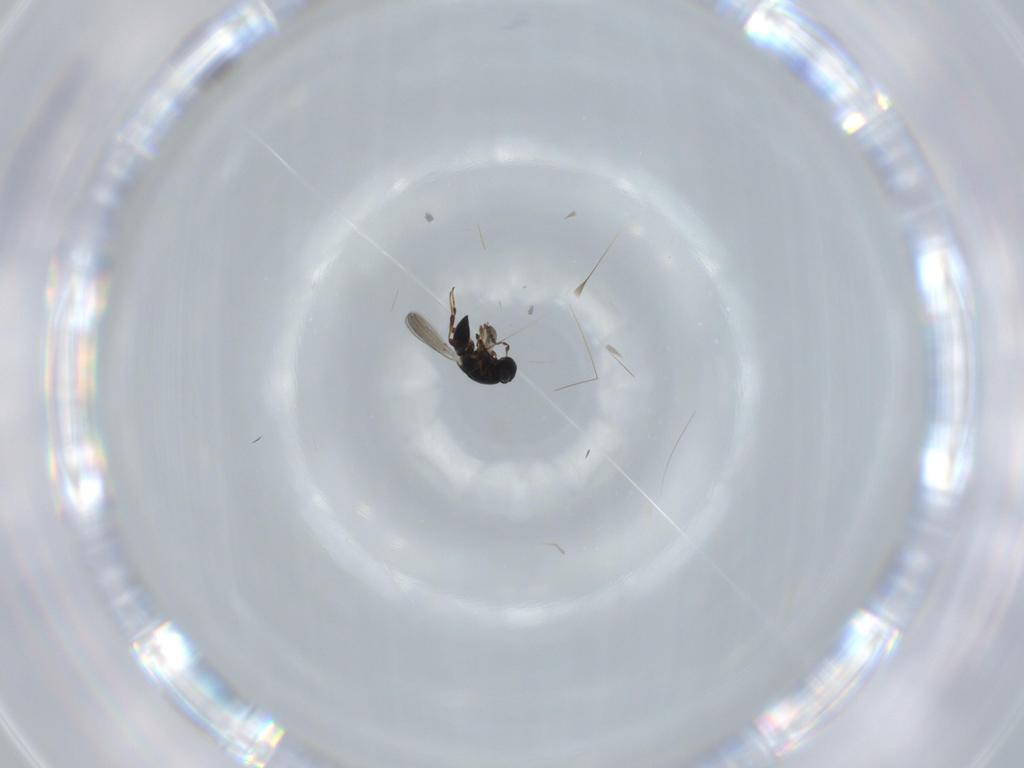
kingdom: Animalia
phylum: Arthropoda
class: Insecta
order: Hymenoptera
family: Platygastridae
